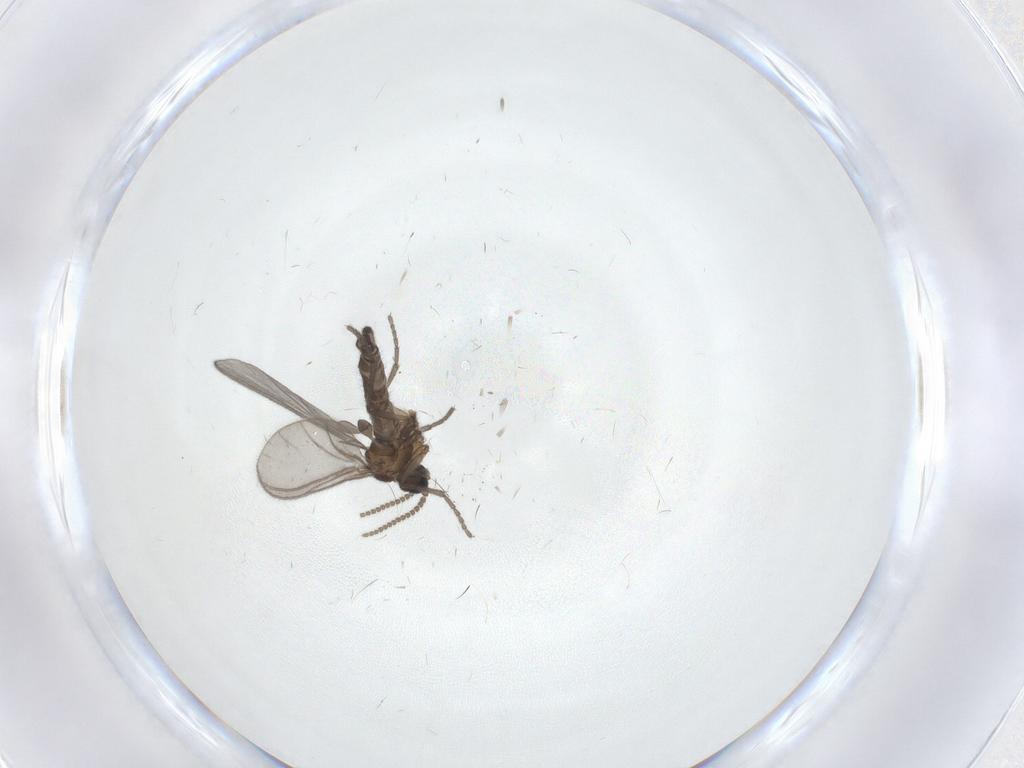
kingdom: Animalia
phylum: Arthropoda
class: Insecta
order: Diptera
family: Sciaridae
